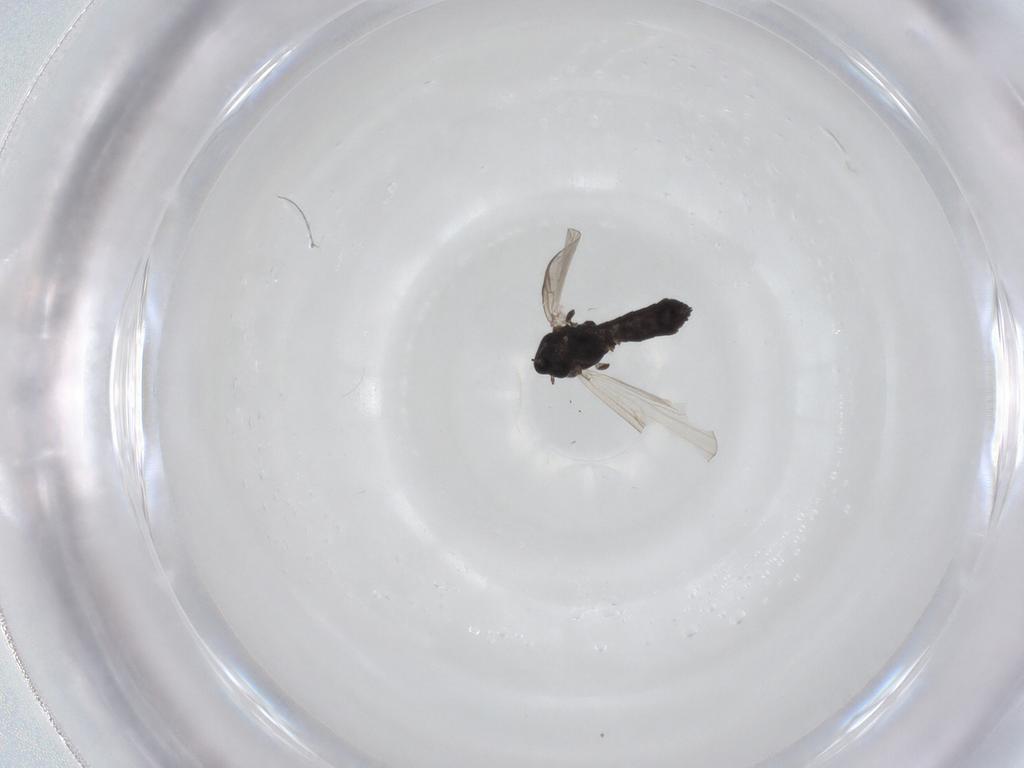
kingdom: Animalia
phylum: Arthropoda
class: Insecta
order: Diptera
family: Chironomidae
